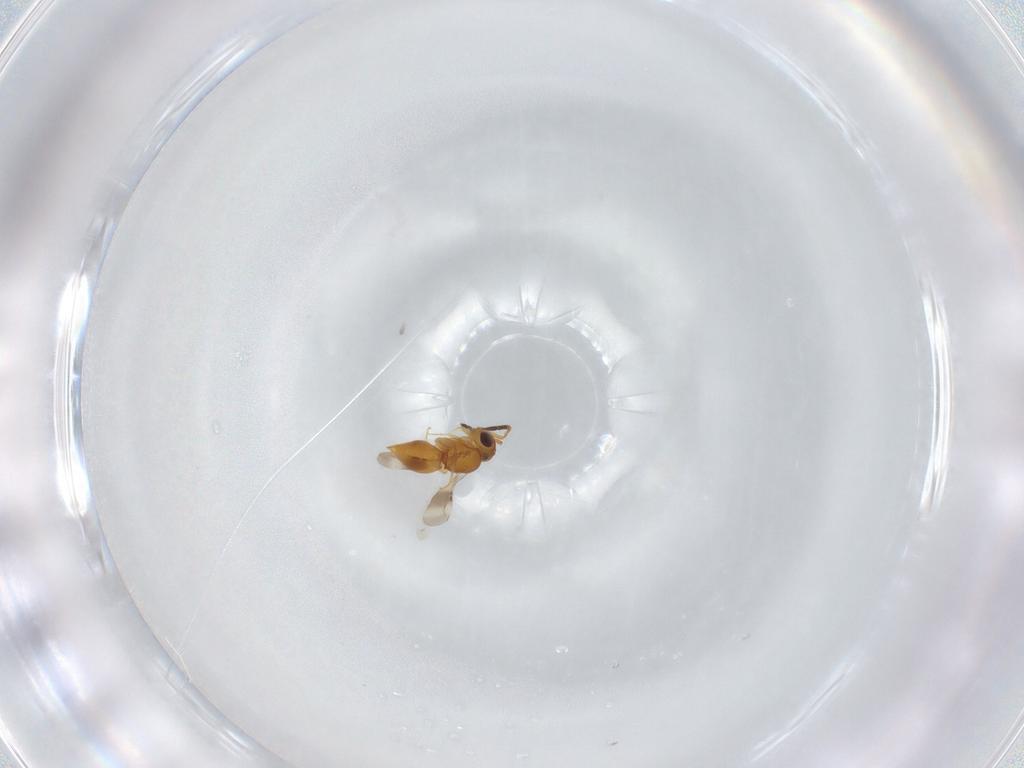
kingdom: Animalia
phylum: Arthropoda
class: Insecta
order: Hymenoptera
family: Ceraphronidae
